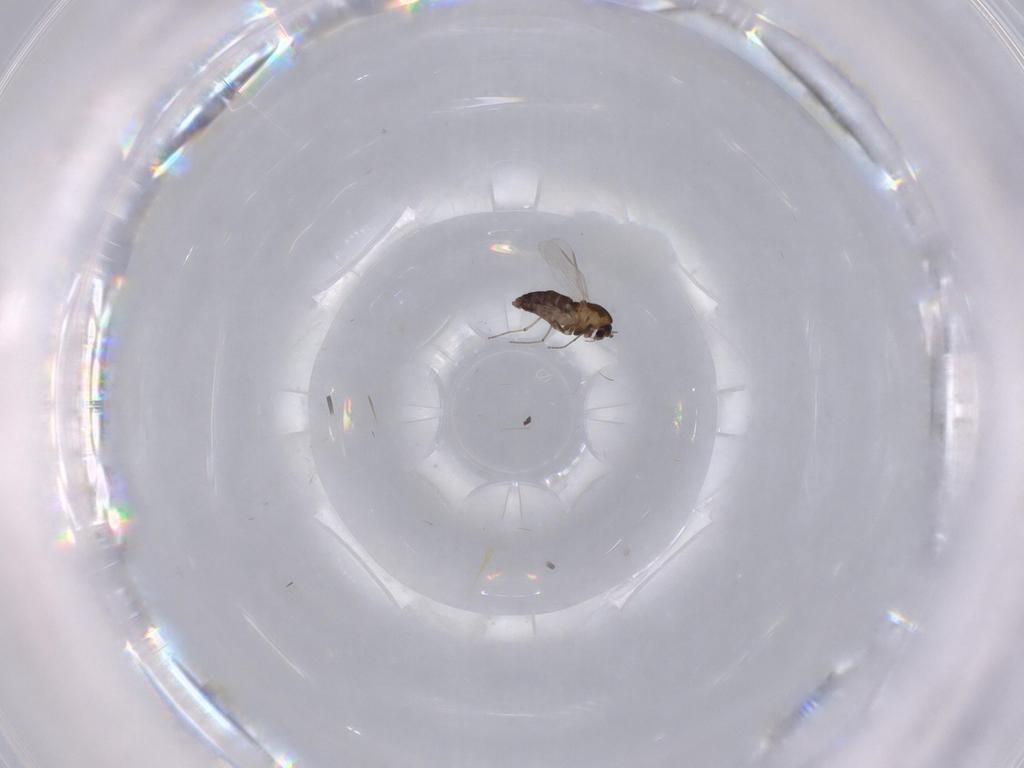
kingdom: Animalia
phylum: Arthropoda
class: Insecta
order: Diptera
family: Chironomidae
